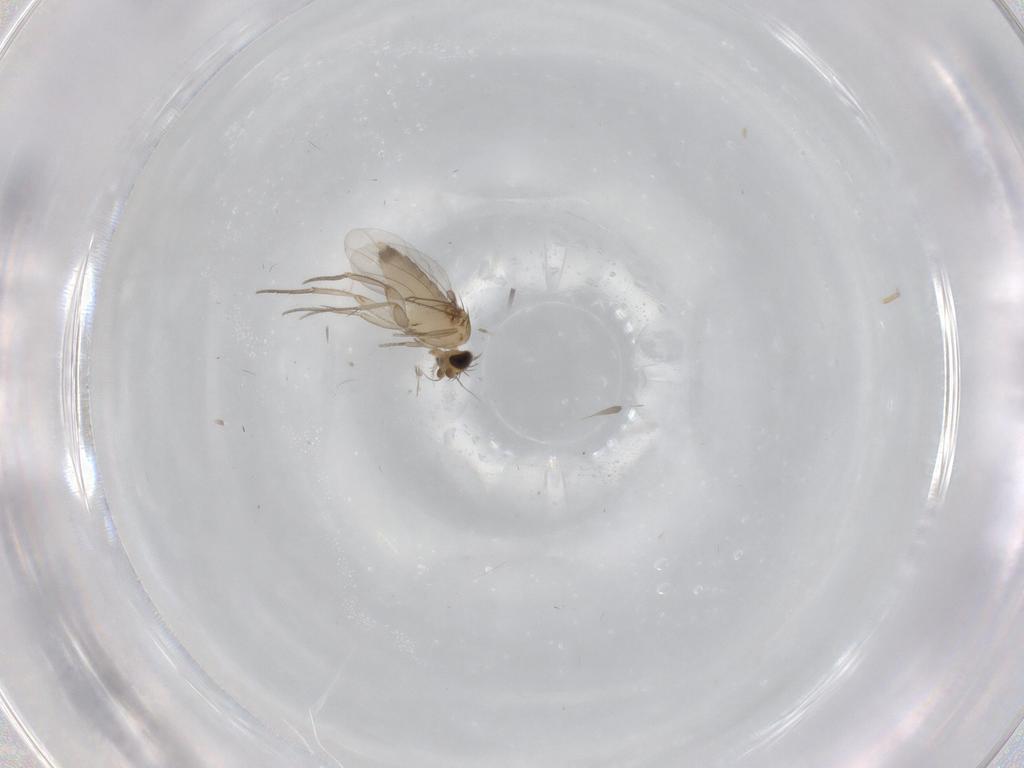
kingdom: Animalia
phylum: Arthropoda
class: Insecta
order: Diptera
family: Phoridae
